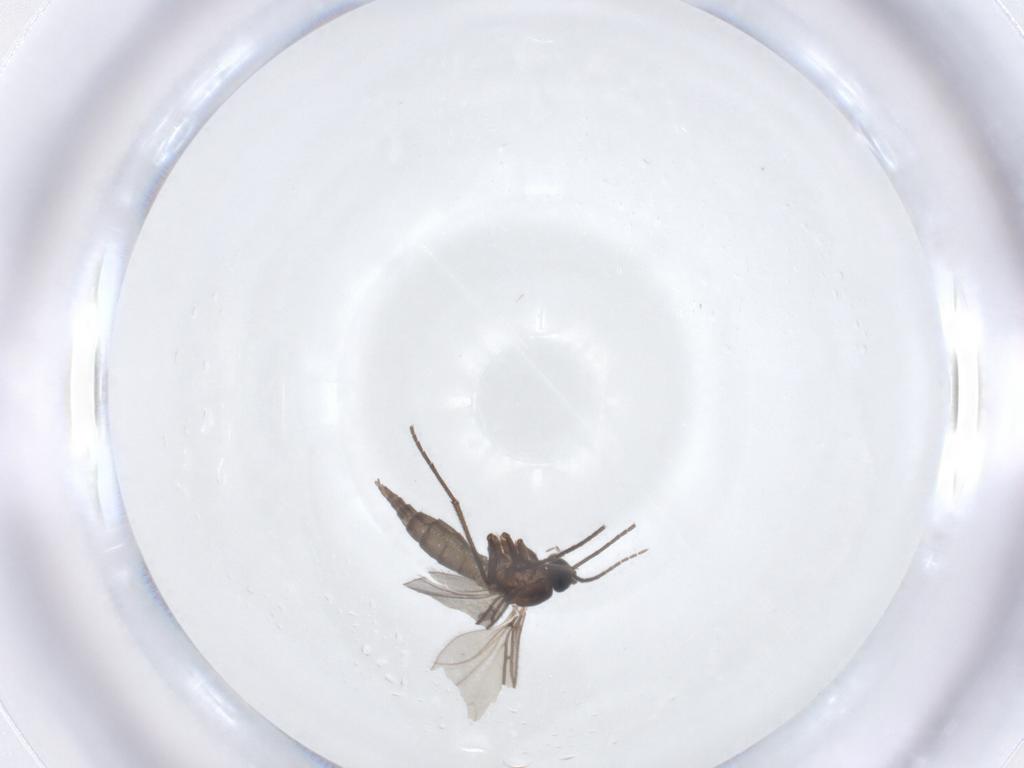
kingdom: Animalia
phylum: Arthropoda
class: Insecta
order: Diptera
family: Sciaridae
